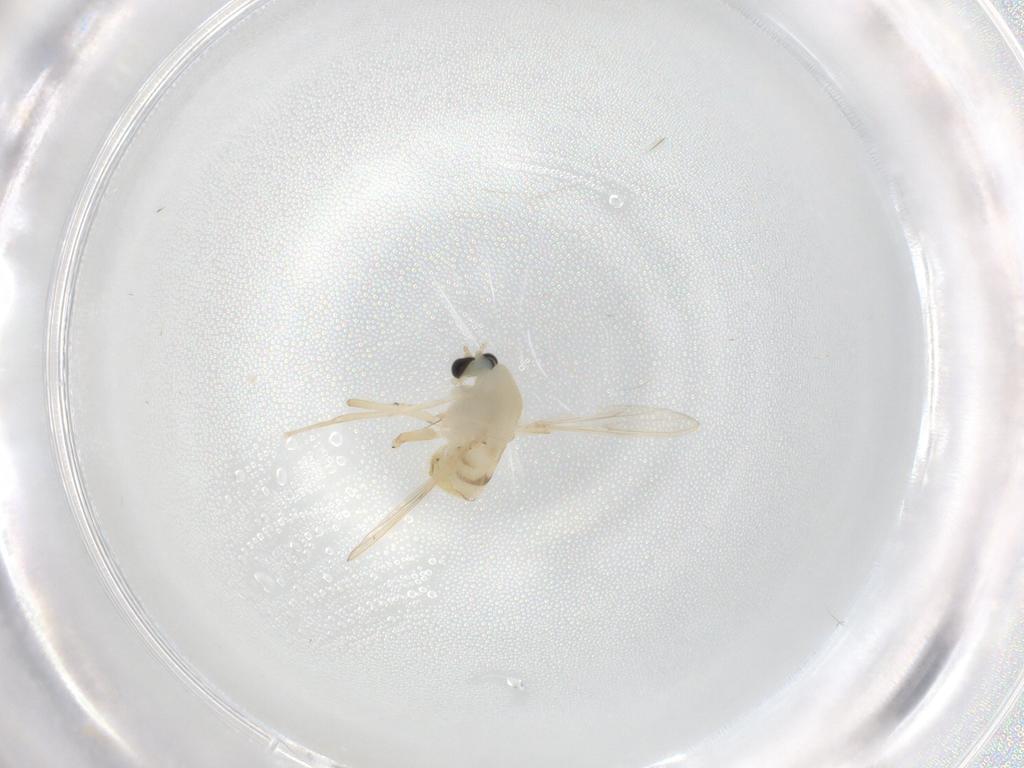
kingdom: Animalia
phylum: Arthropoda
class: Insecta
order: Diptera
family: Chironomidae
